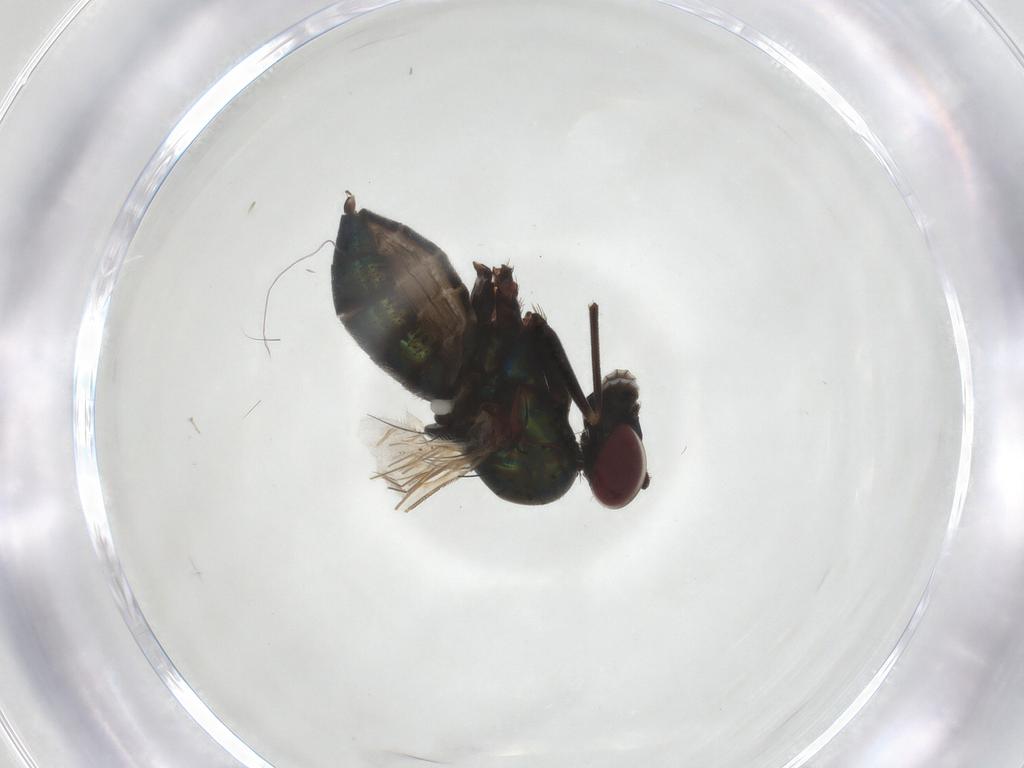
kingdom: Animalia
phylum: Arthropoda
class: Insecta
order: Diptera
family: Dolichopodidae
